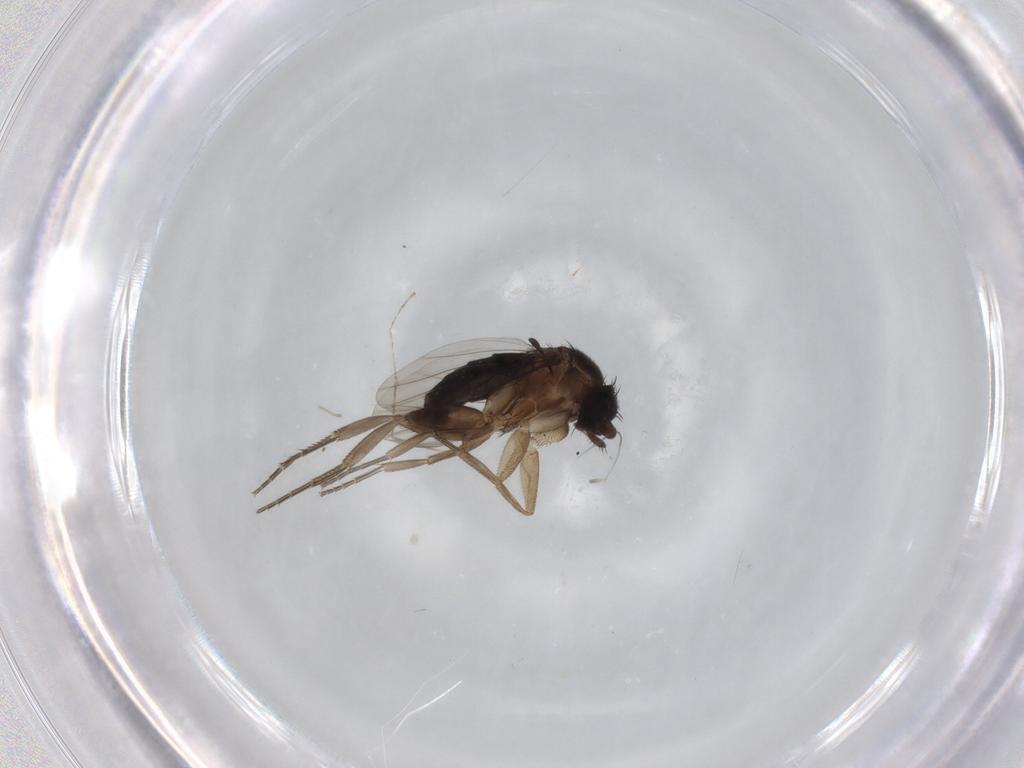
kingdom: Animalia
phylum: Arthropoda
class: Insecta
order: Diptera
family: Phoridae
